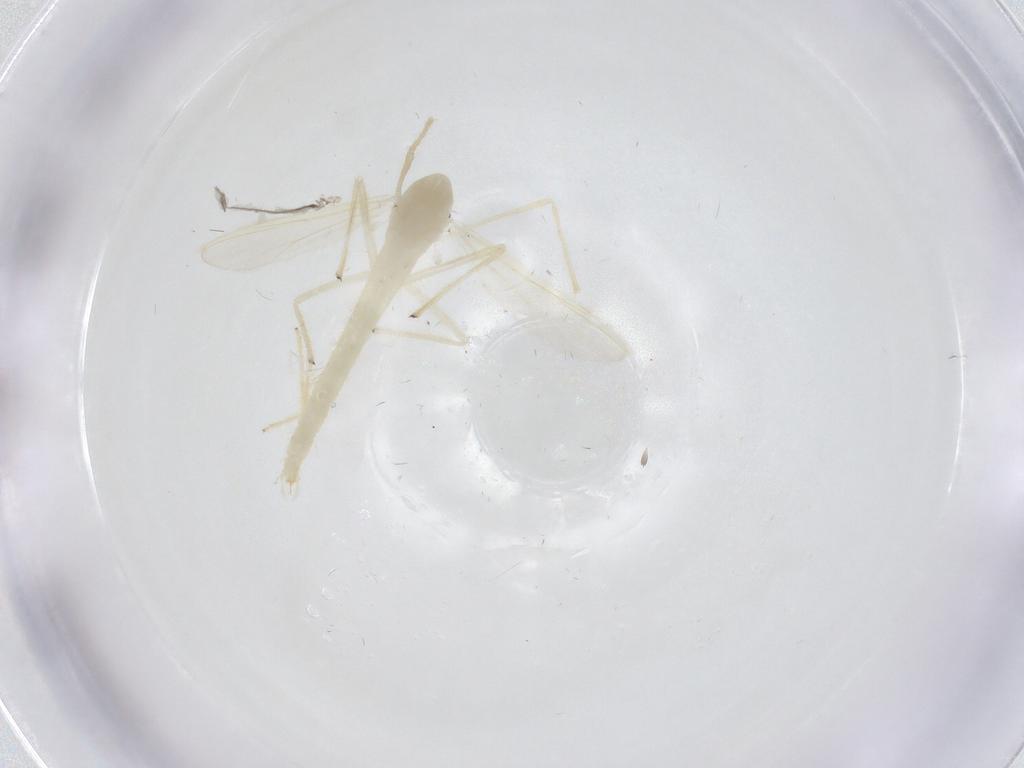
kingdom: Animalia
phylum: Arthropoda
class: Insecta
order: Diptera
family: Chironomidae
